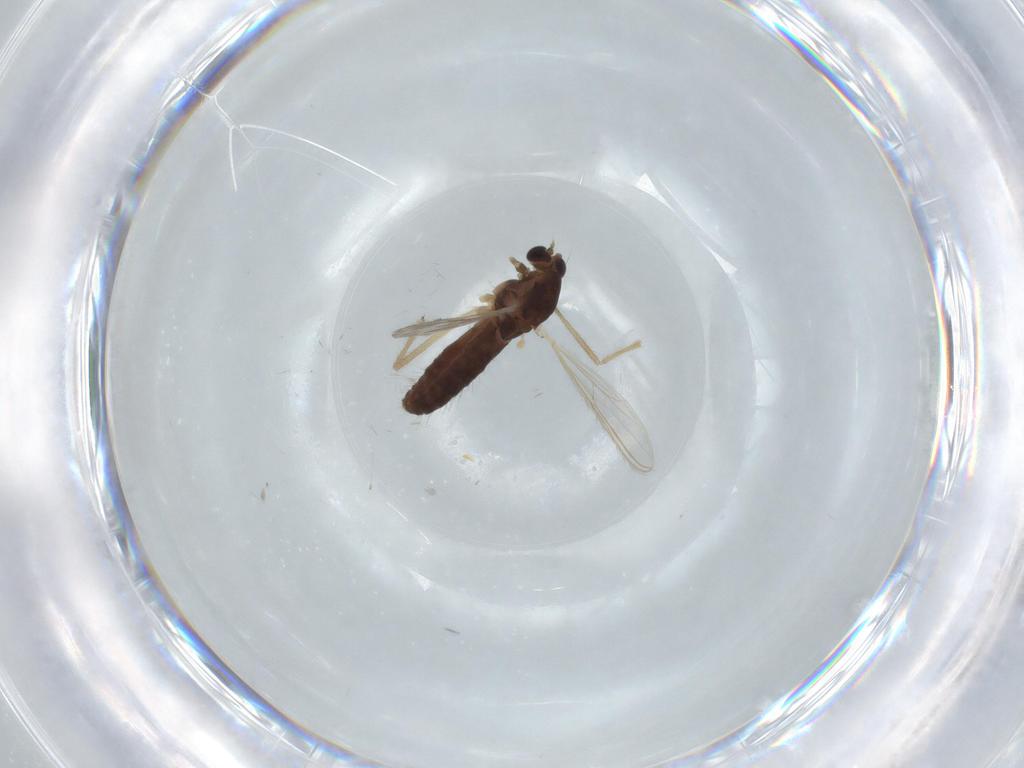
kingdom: Animalia
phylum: Arthropoda
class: Insecta
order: Diptera
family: Chironomidae
